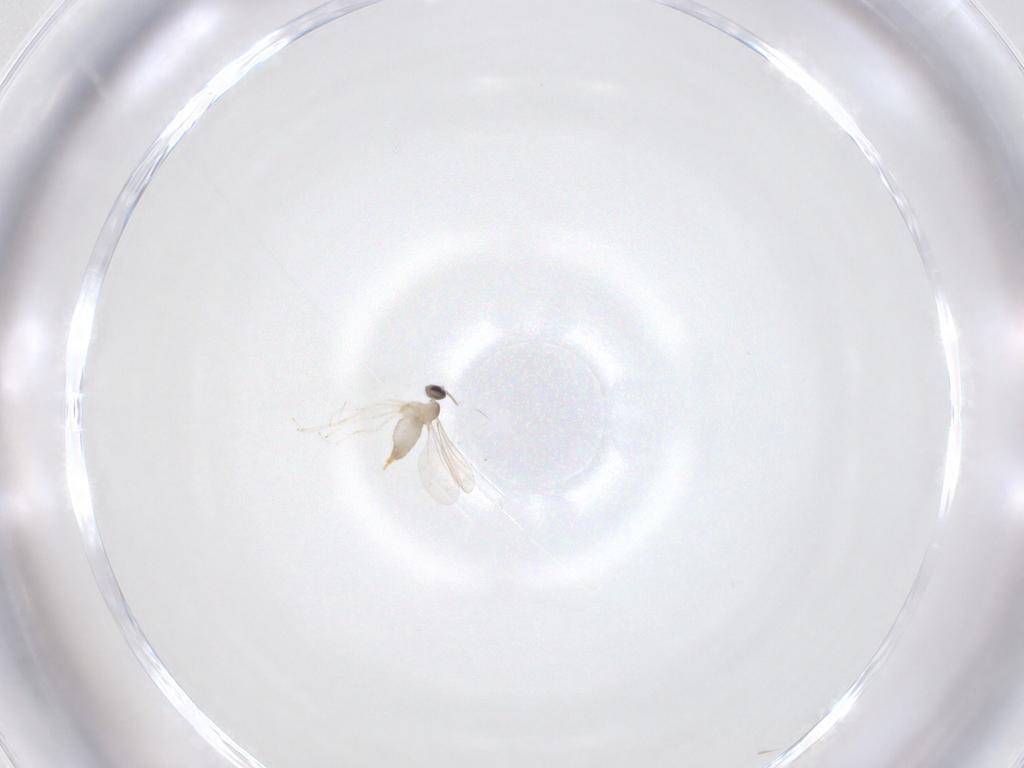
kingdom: Animalia
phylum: Arthropoda
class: Insecta
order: Diptera
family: Cecidomyiidae
